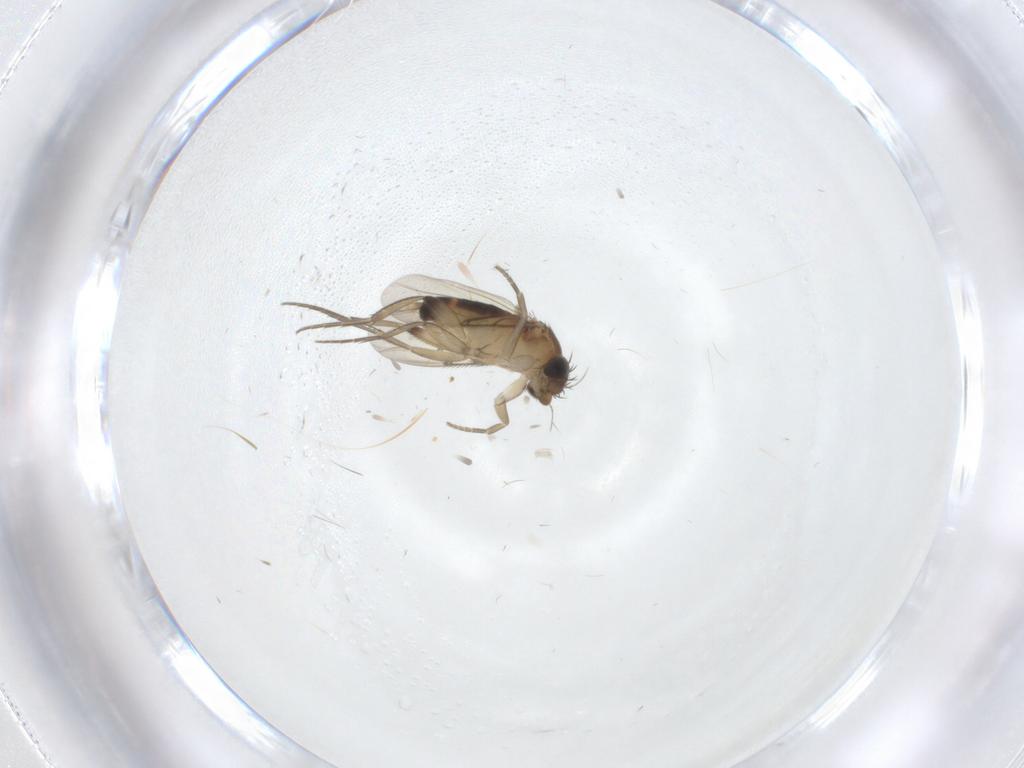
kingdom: Animalia
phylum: Arthropoda
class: Insecta
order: Diptera
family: Phoridae
